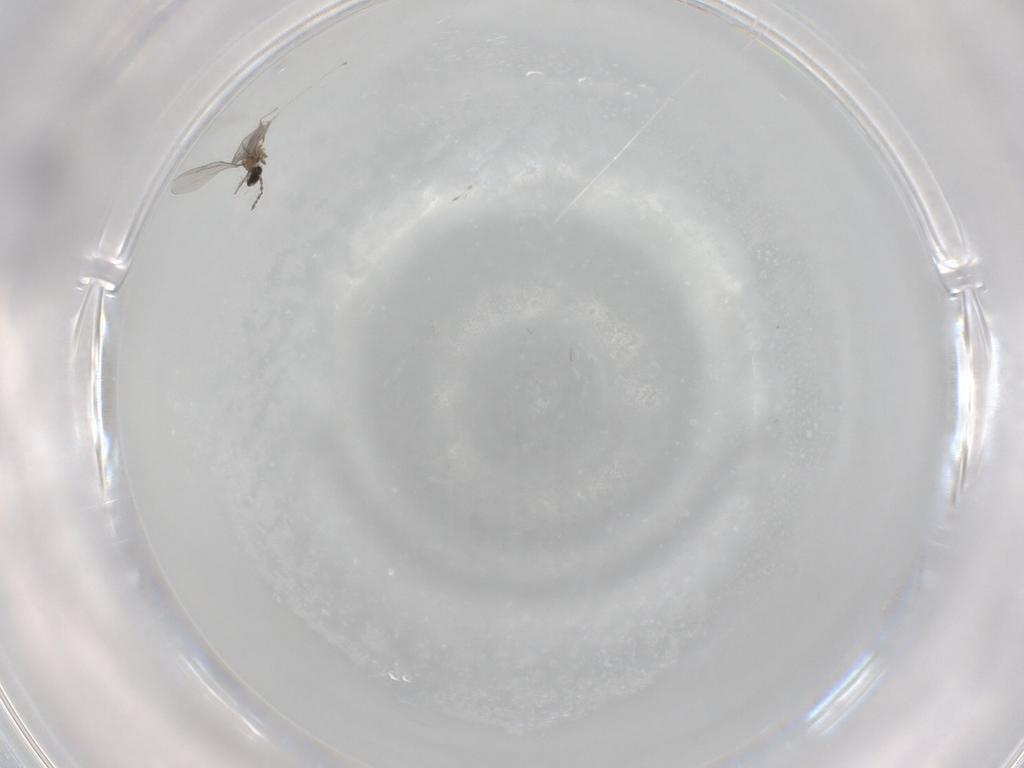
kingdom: Animalia
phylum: Arthropoda
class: Insecta
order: Diptera
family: Cecidomyiidae
